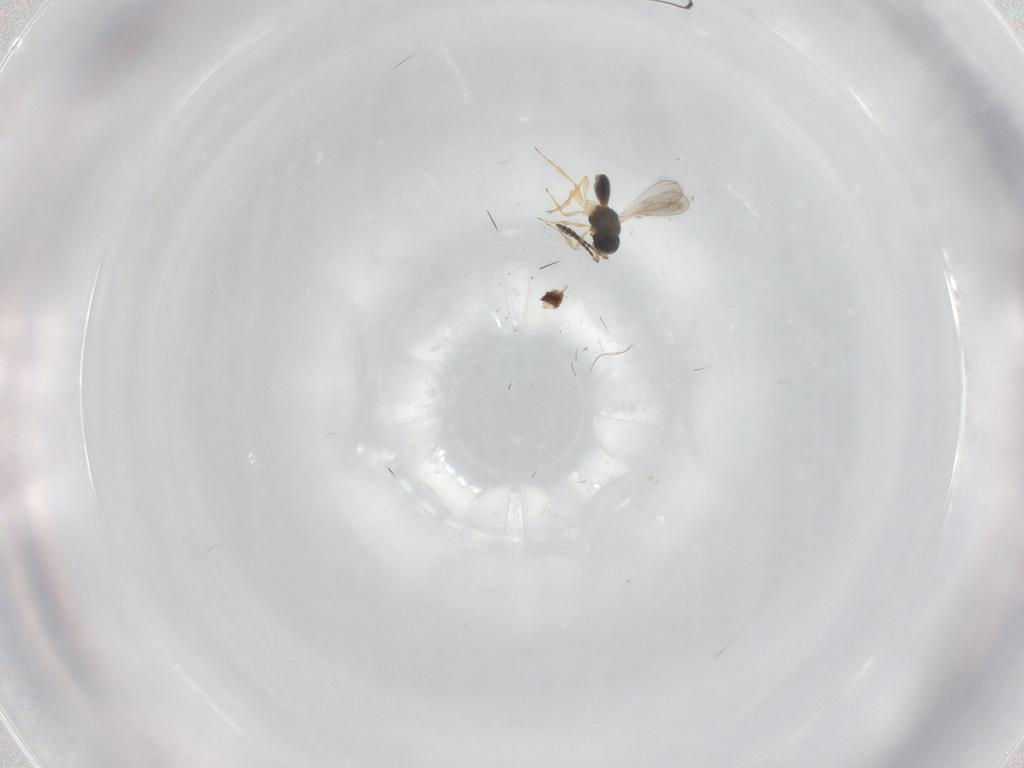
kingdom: Animalia
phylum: Arthropoda
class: Insecta
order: Hymenoptera
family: Scelionidae
